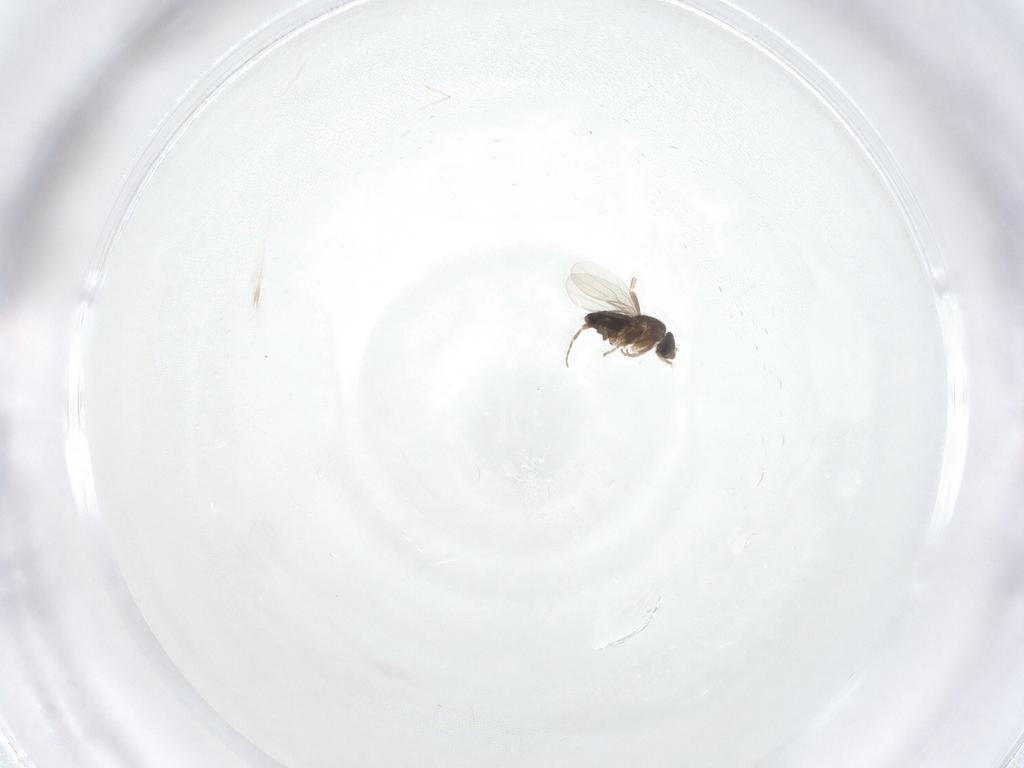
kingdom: Animalia
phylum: Arthropoda
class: Insecta
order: Diptera
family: Phoridae
